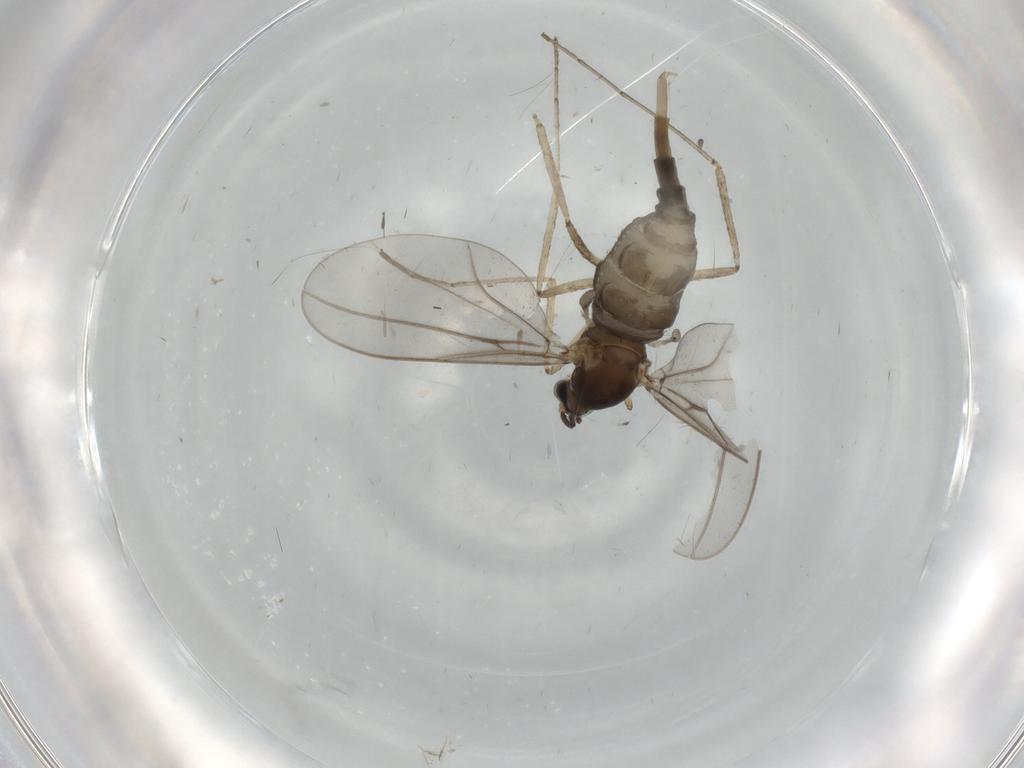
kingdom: Animalia
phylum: Arthropoda
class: Insecta
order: Diptera
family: Cecidomyiidae
